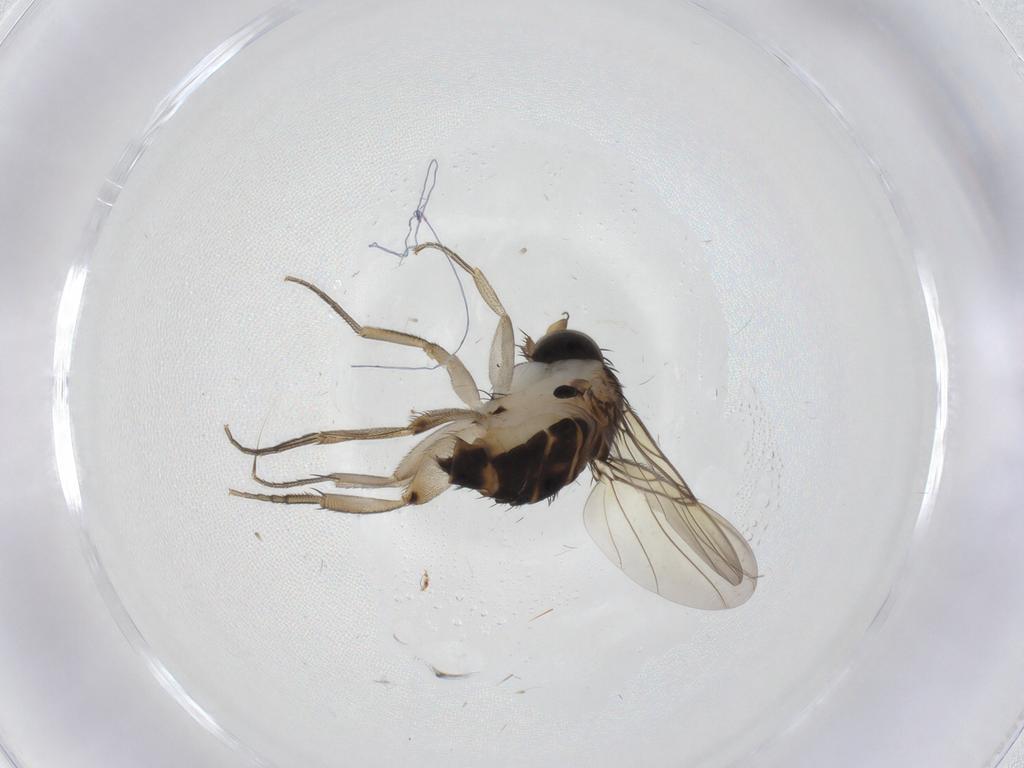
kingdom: Animalia
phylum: Arthropoda
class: Insecta
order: Diptera
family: Phoridae
